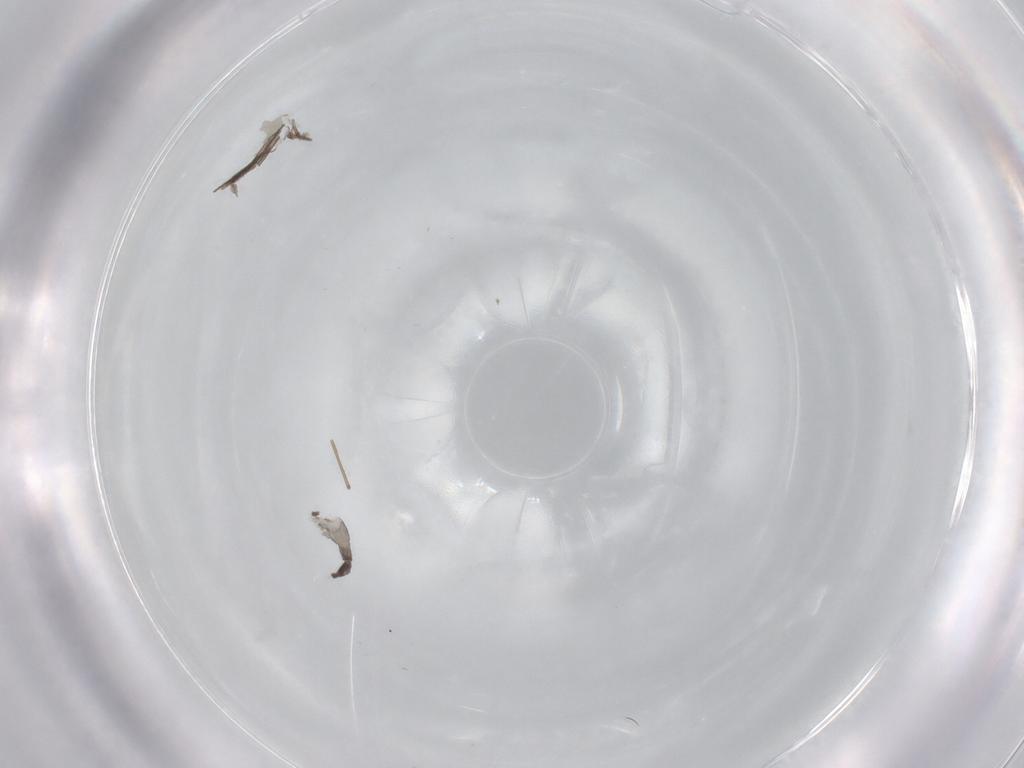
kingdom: Animalia
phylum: Arthropoda
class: Insecta
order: Diptera
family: Sciaridae
